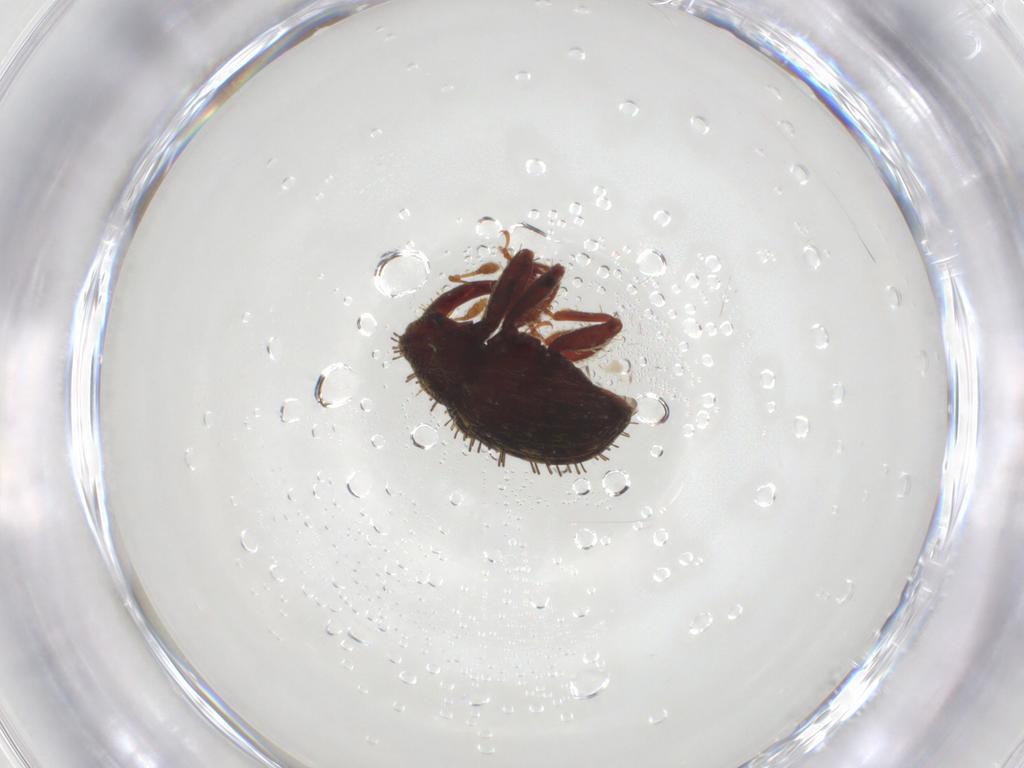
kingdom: Animalia
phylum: Arthropoda
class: Insecta
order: Coleoptera
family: Curculionidae
